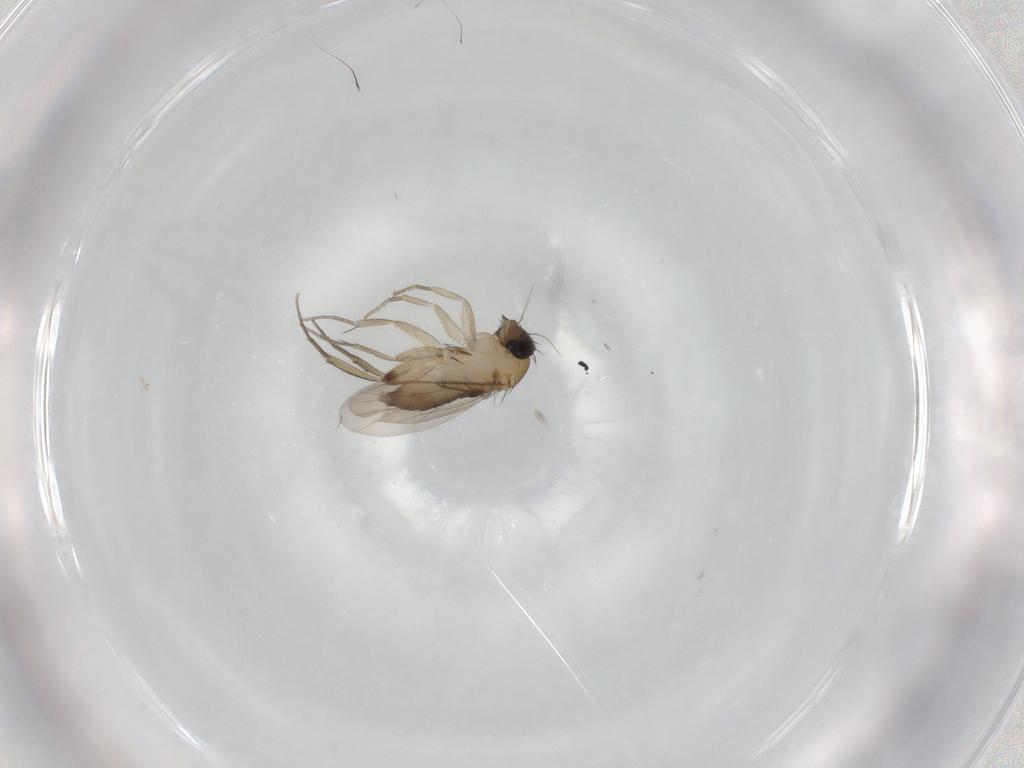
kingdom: Animalia
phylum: Arthropoda
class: Insecta
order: Diptera
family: Phoridae
